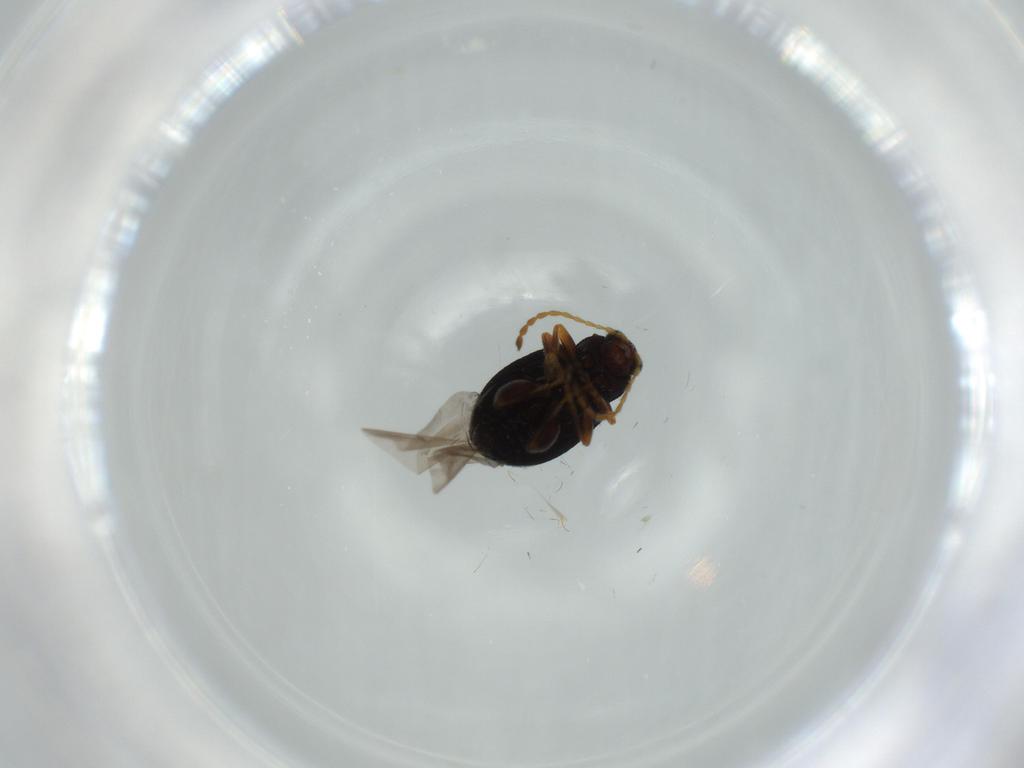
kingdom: Animalia
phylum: Arthropoda
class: Insecta
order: Coleoptera
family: Chrysomelidae
